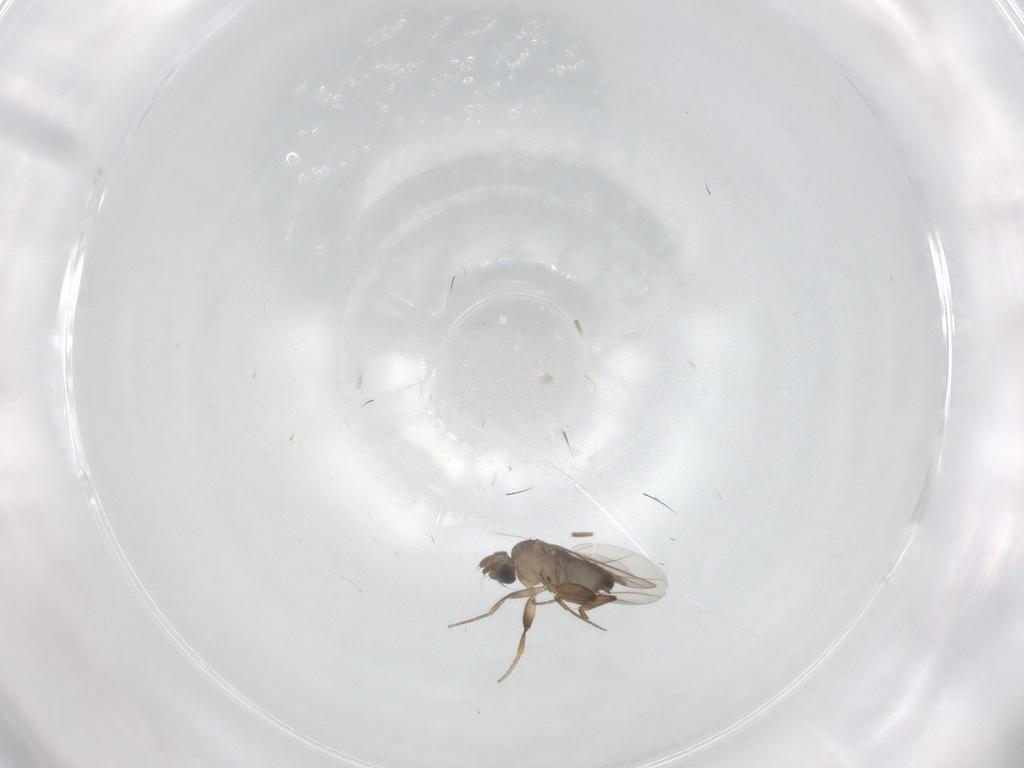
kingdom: Animalia
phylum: Arthropoda
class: Insecta
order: Diptera
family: Phoridae
